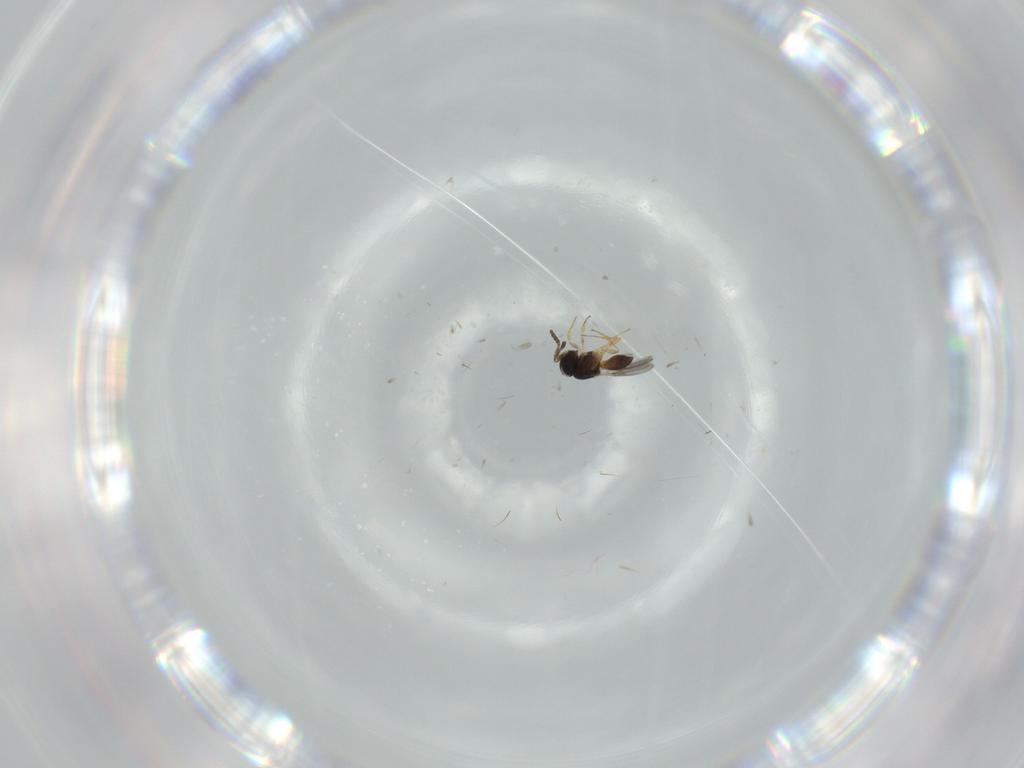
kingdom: Animalia
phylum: Arthropoda
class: Insecta
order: Hymenoptera
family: Scelionidae
